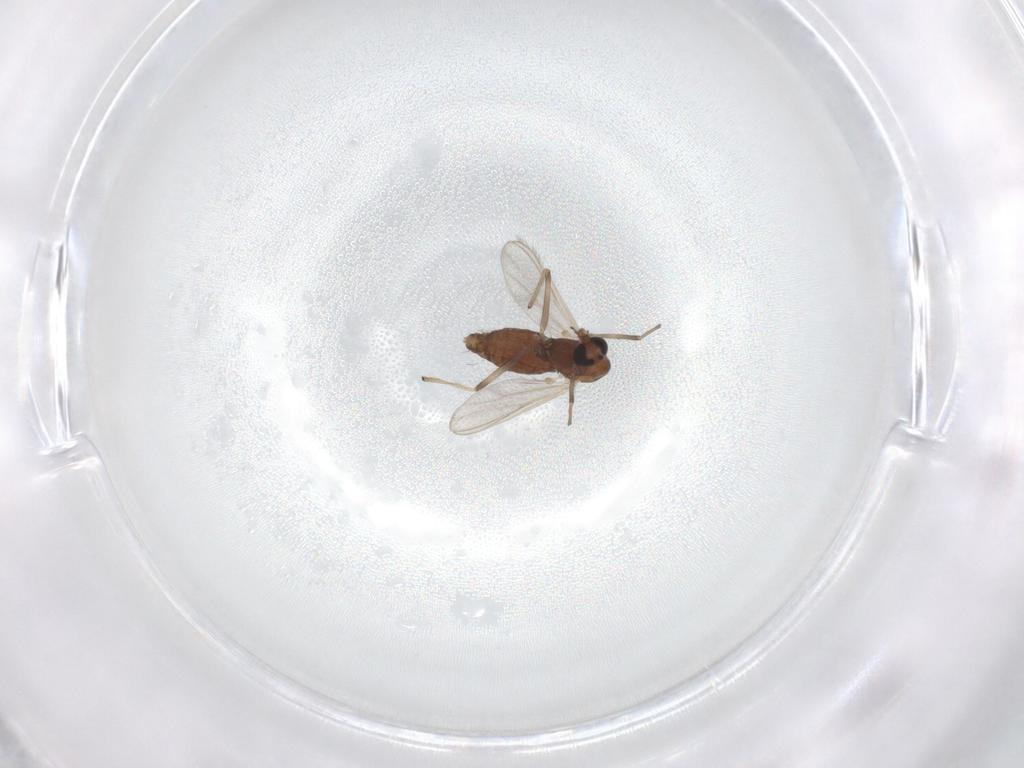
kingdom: Animalia
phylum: Arthropoda
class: Insecta
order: Diptera
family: Chironomidae
